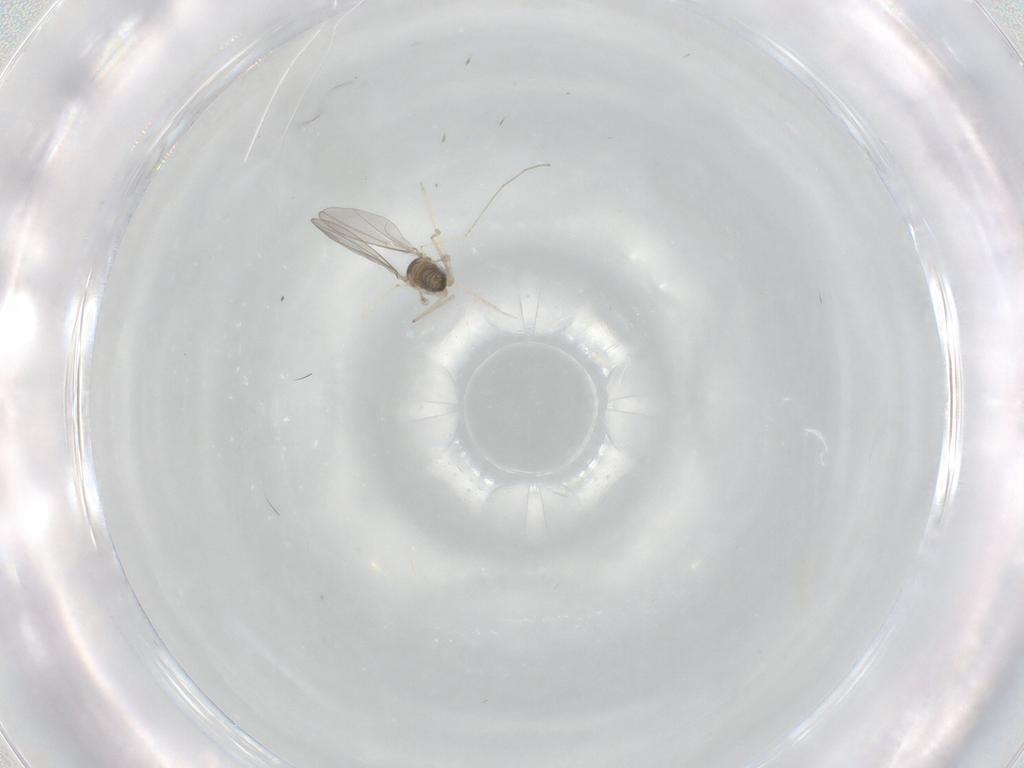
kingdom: Animalia
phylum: Arthropoda
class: Insecta
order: Diptera
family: Cecidomyiidae
